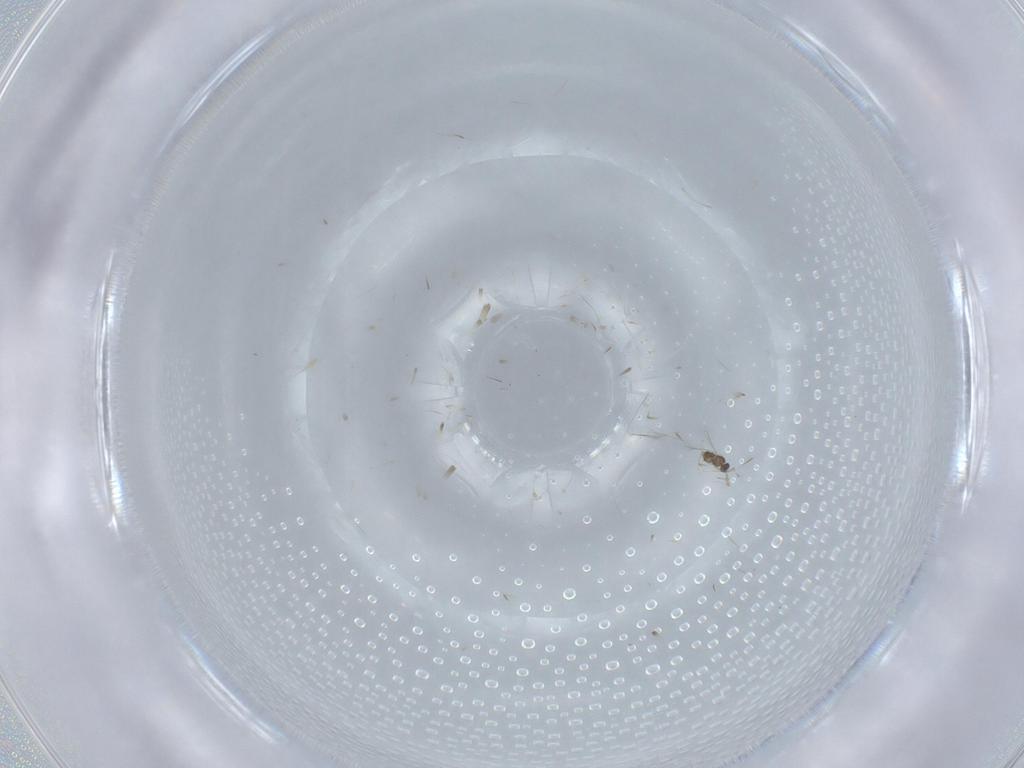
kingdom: Animalia
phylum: Arthropoda
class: Insecta
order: Hymenoptera
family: Mymaridae
